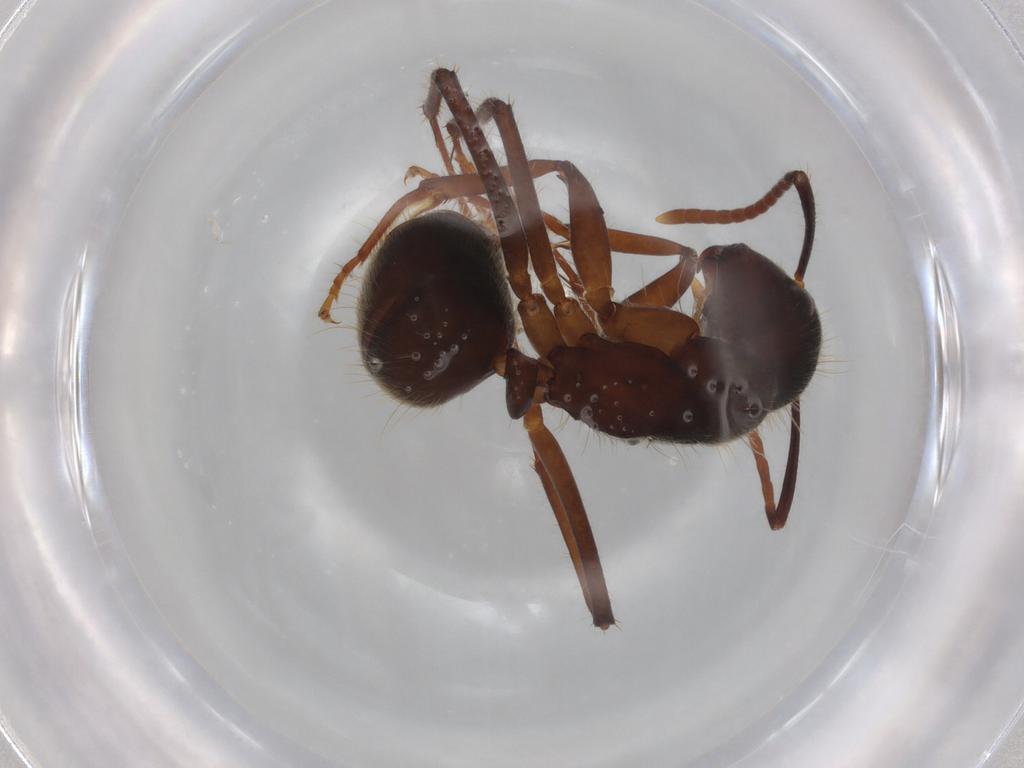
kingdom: Animalia
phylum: Arthropoda
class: Insecta
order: Hymenoptera
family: Formicidae
